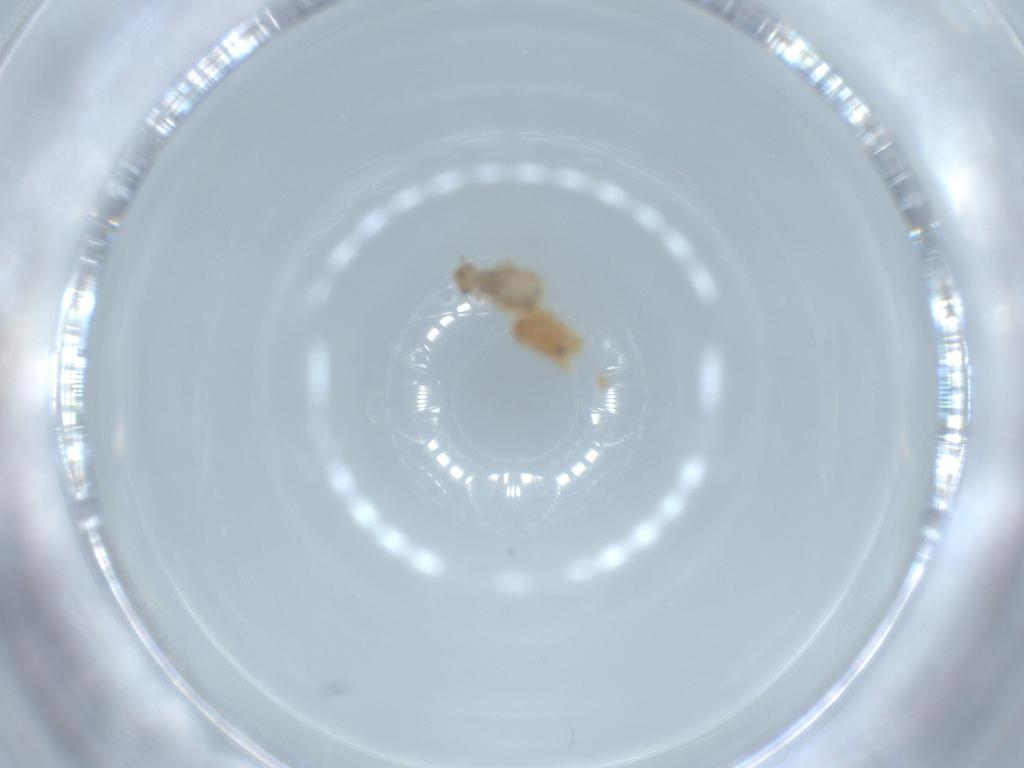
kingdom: Animalia
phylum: Arthropoda
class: Insecta
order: Psocodea
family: Liposcelididae
